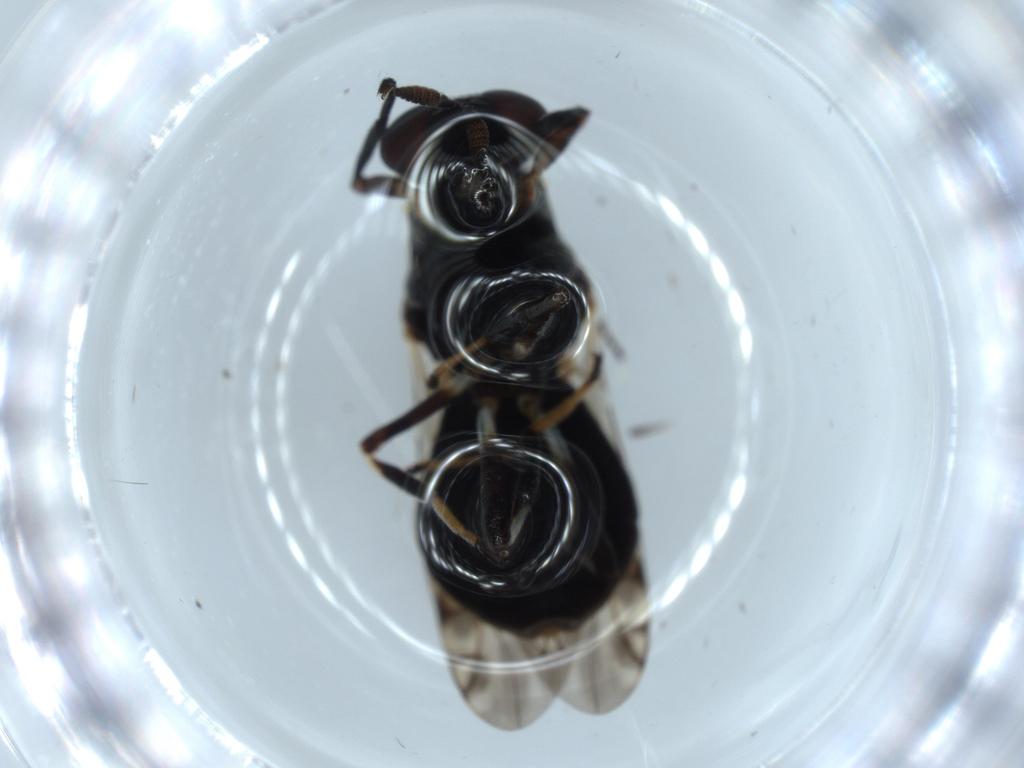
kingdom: Animalia
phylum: Arthropoda
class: Insecta
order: Diptera
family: Stratiomyidae
